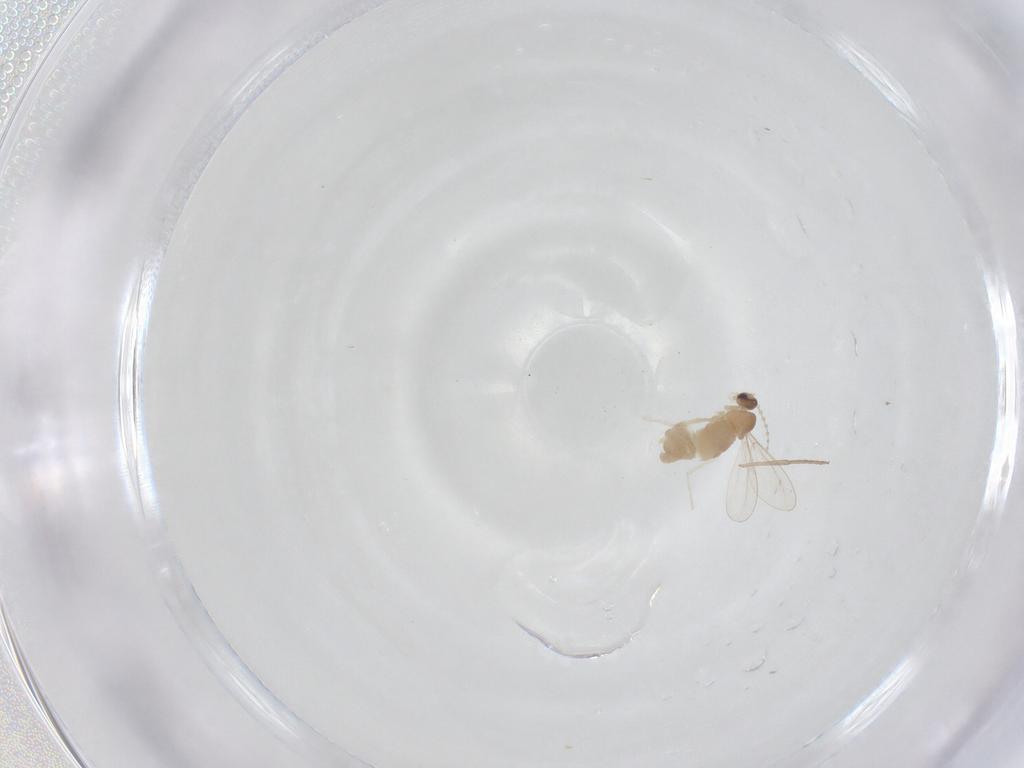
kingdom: Animalia
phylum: Arthropoda
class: Insecta
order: Diptera
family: Cecidomyiidae
